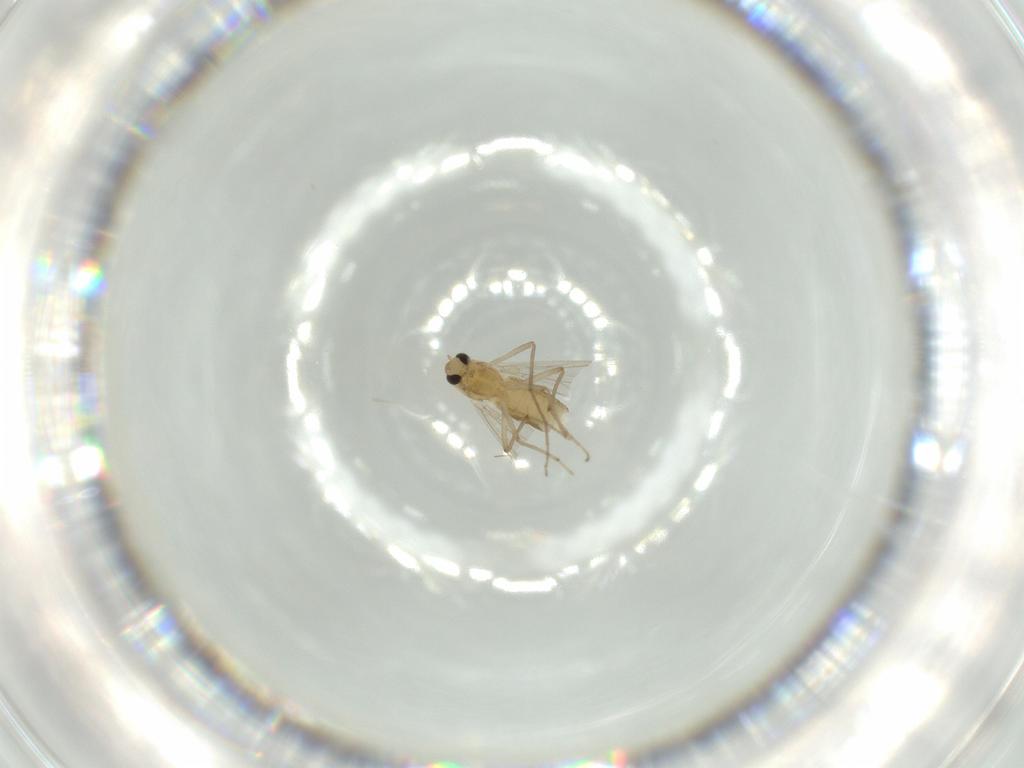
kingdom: Animalia
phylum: Arthropoda
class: Insecta
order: Diptera
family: Chironomidae
